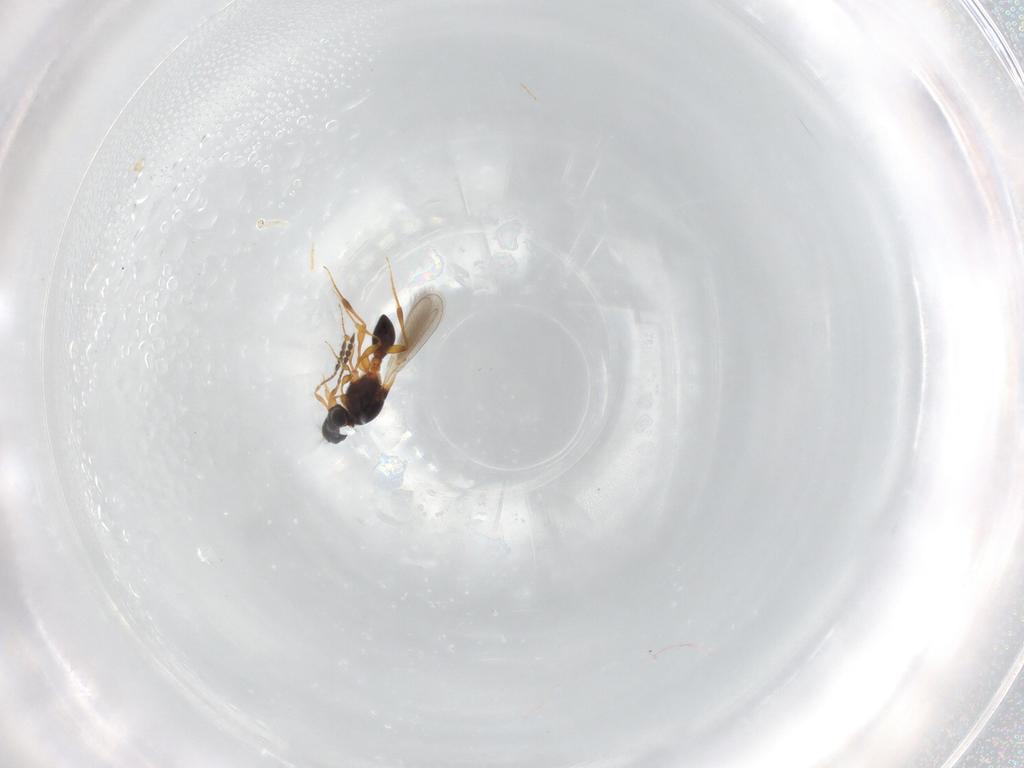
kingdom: Animalia
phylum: Arthropoda
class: Insecta
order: Hymenoptera
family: Platygastridae
